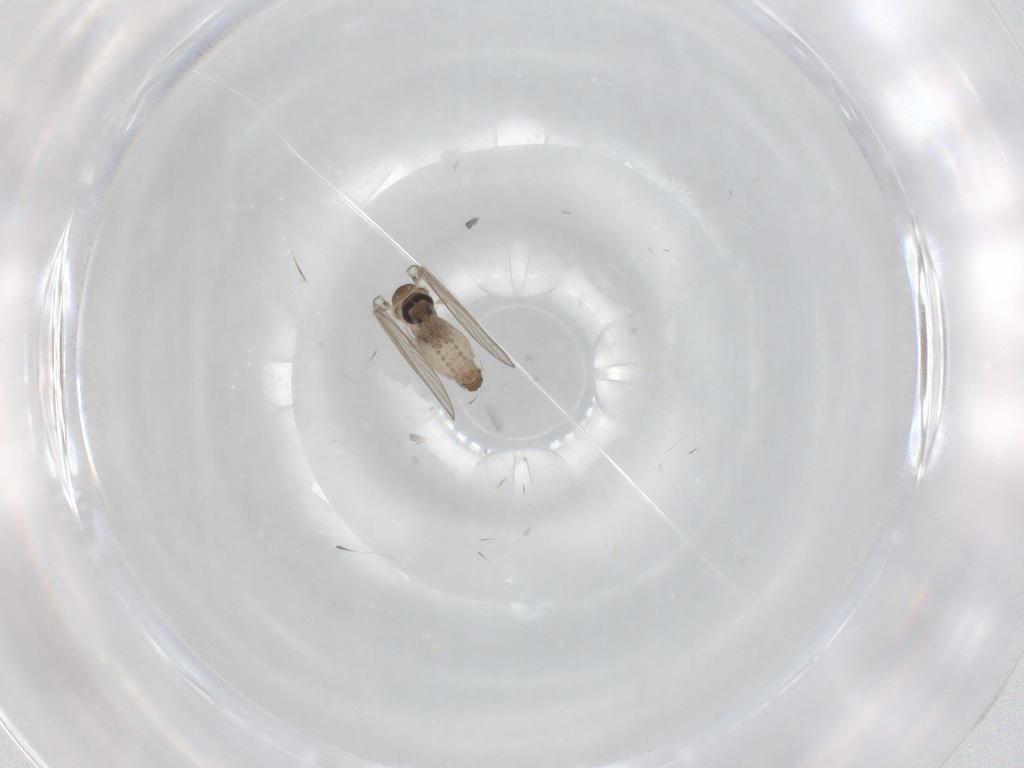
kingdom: Animalia
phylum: Arthropoda
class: Insecta
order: Diptera
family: Psychodidae
